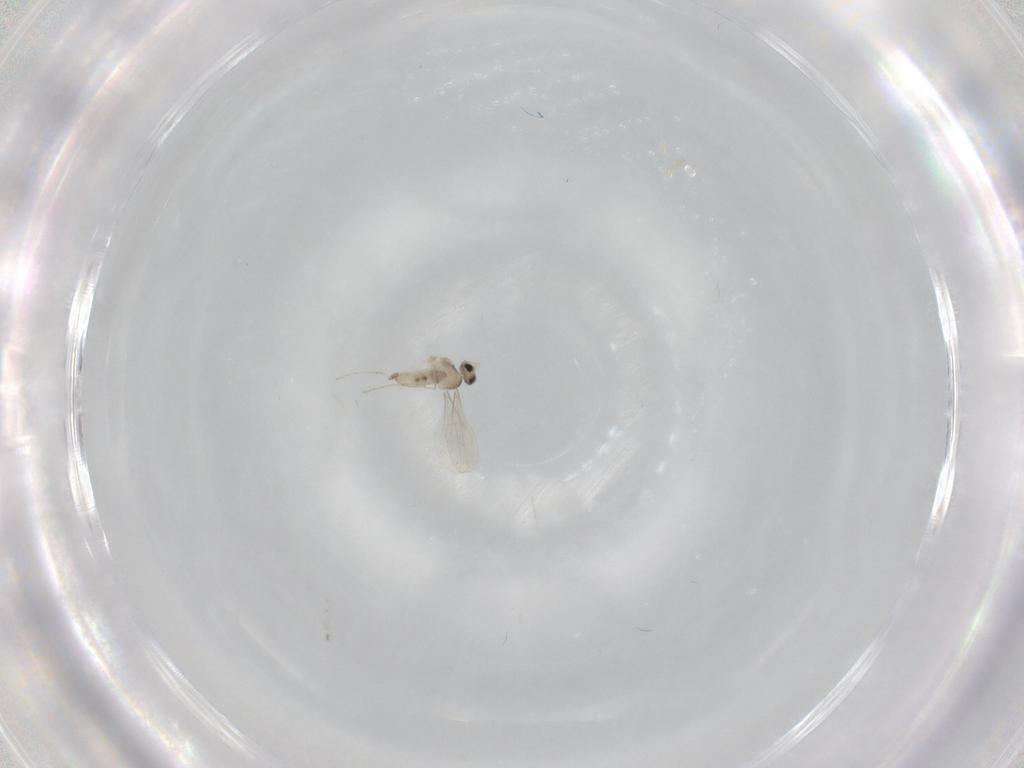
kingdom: Animalia
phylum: Arthropoda
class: Insecta
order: Diptera
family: Cecidomyiidae
